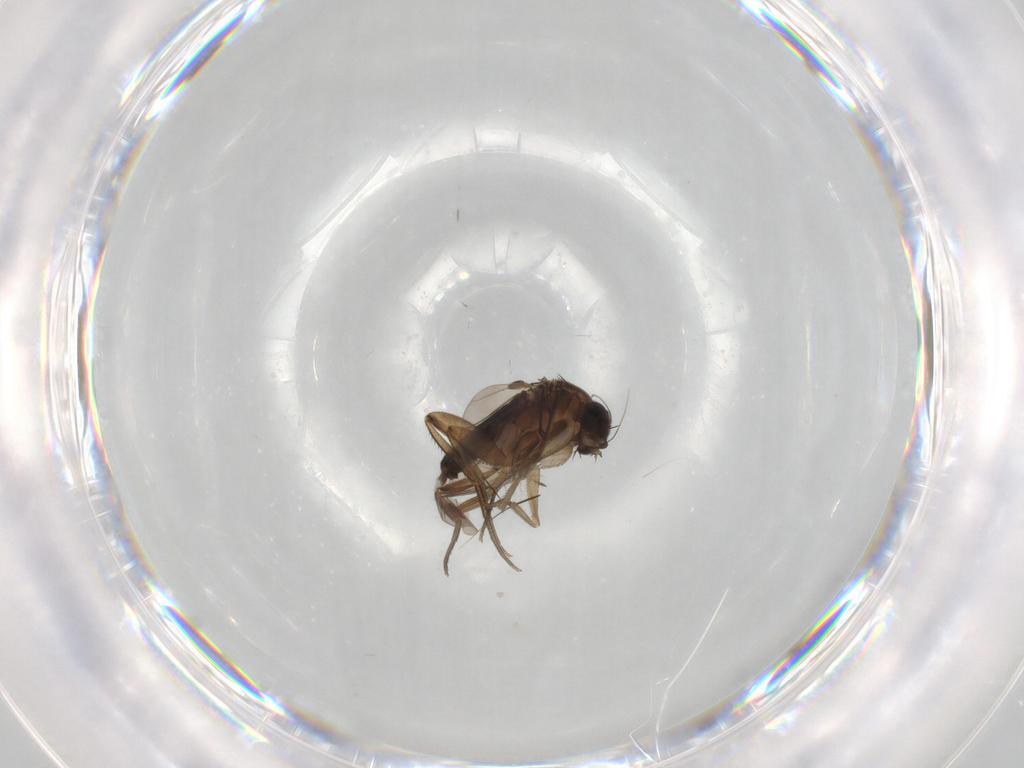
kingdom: Animalia
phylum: Arthropoda
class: Insecta
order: Diptera
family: Chironomidae
